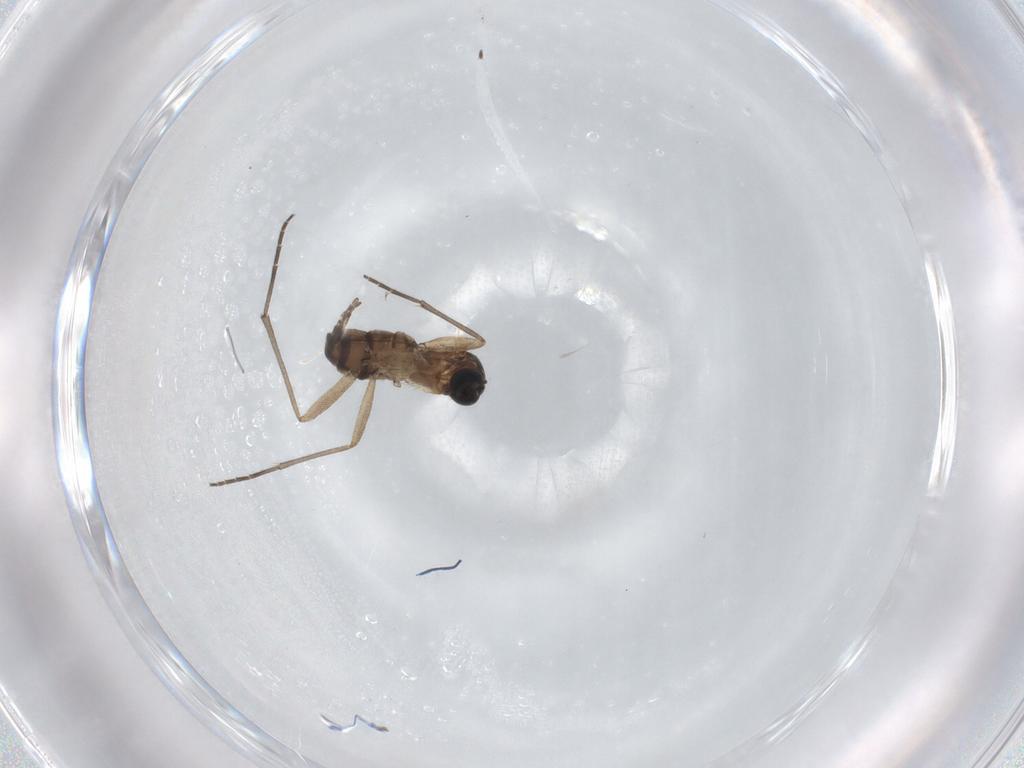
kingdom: Animalia
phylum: Arthropoda
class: Insecta
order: Diptera
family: Sciaridae
